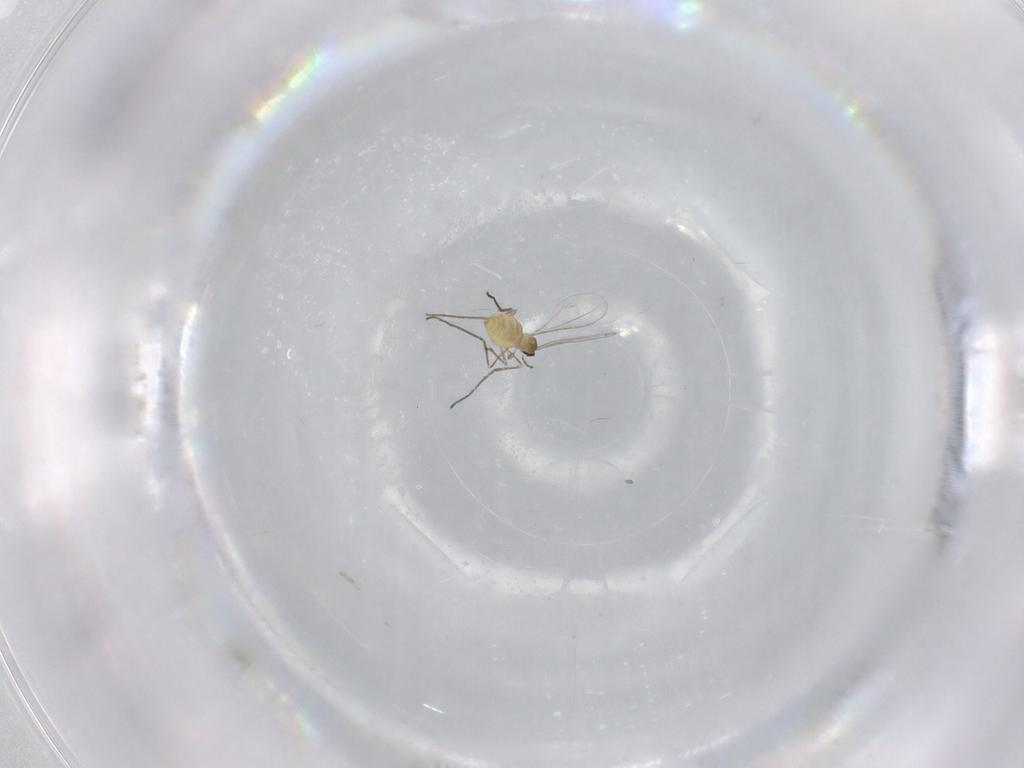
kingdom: Animalia
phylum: Arthropoda
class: Insecta
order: Diptera
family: Cecidomyiidae
